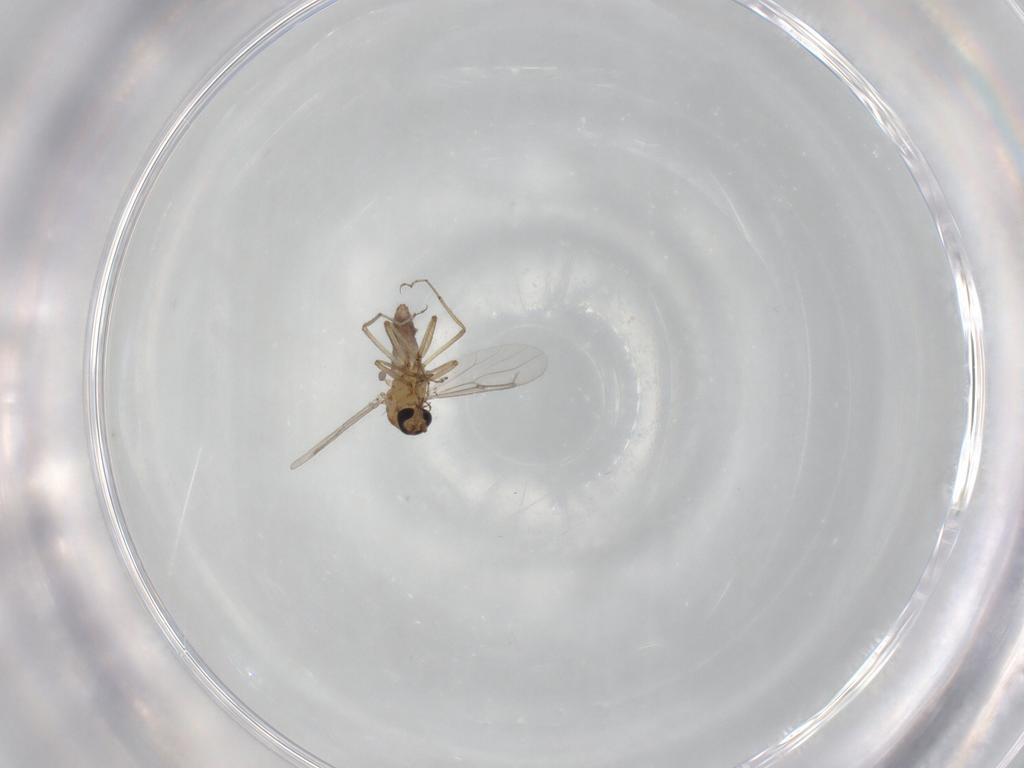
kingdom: Animalia
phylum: Arthropoda
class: Insecta
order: Diptera
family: Ceratopogonidae
